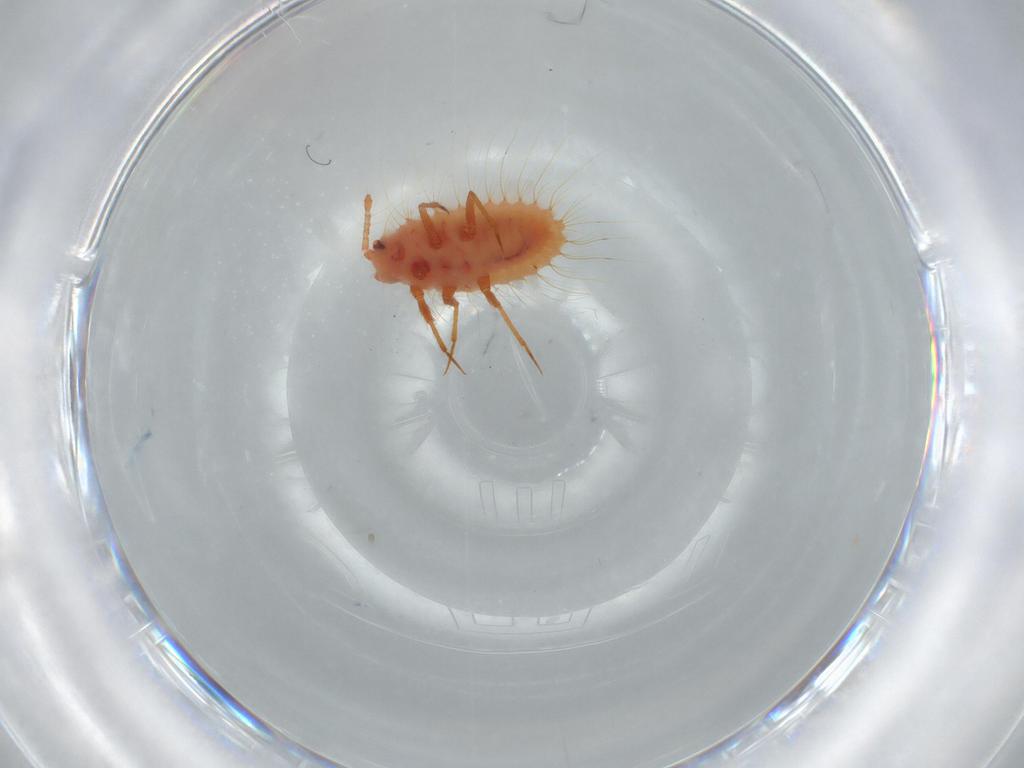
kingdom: Animalia
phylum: Arthropoda
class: Insecta
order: Hemiptera
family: Coccoidea_incertae_sedis
